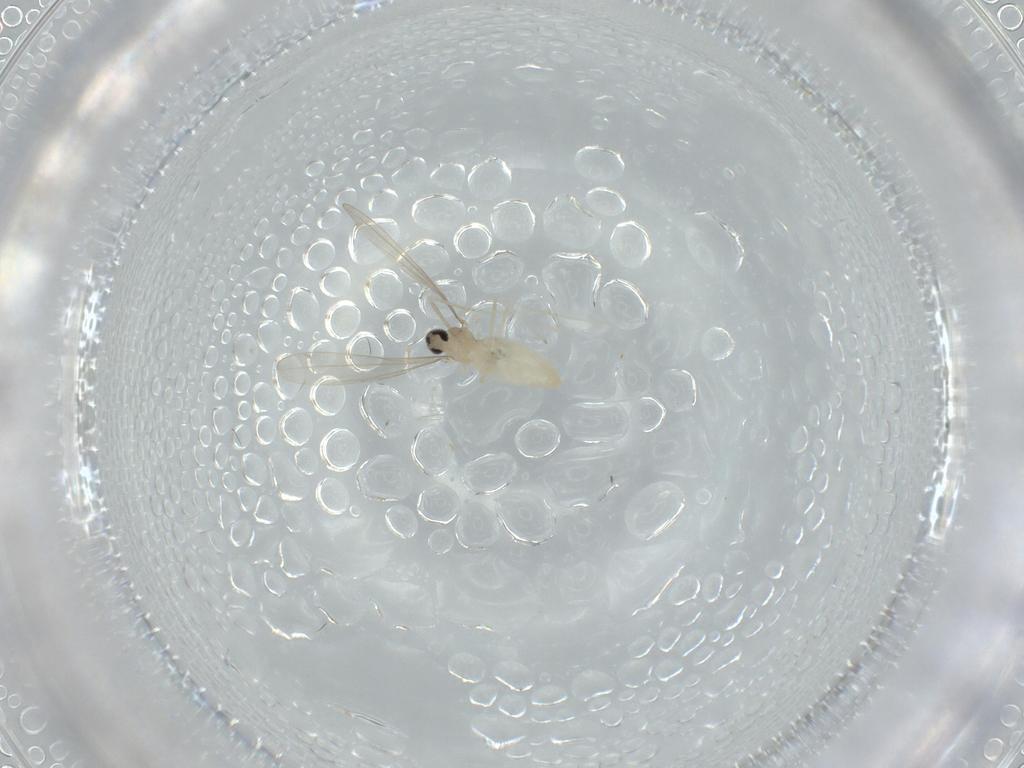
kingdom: Animalia
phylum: Arthropoda
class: Insecta
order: Diptera
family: Cecidomyiidae
